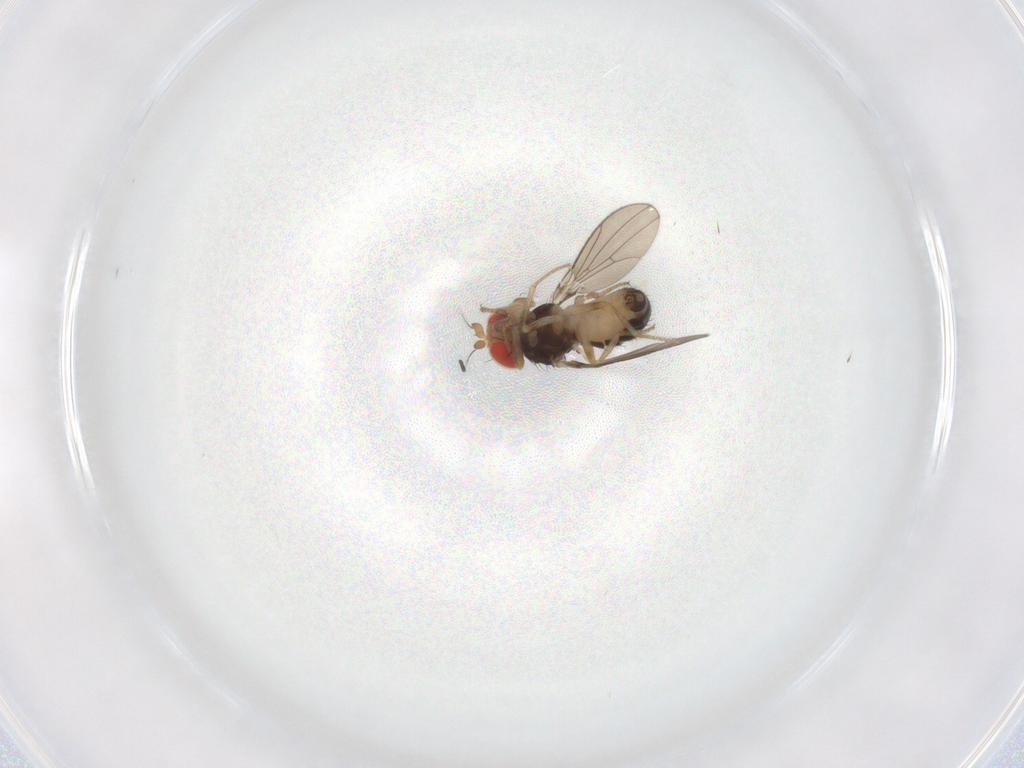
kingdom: Animalia
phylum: Arthropoda
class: Insecta
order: Diptera
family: Drosophilidae
